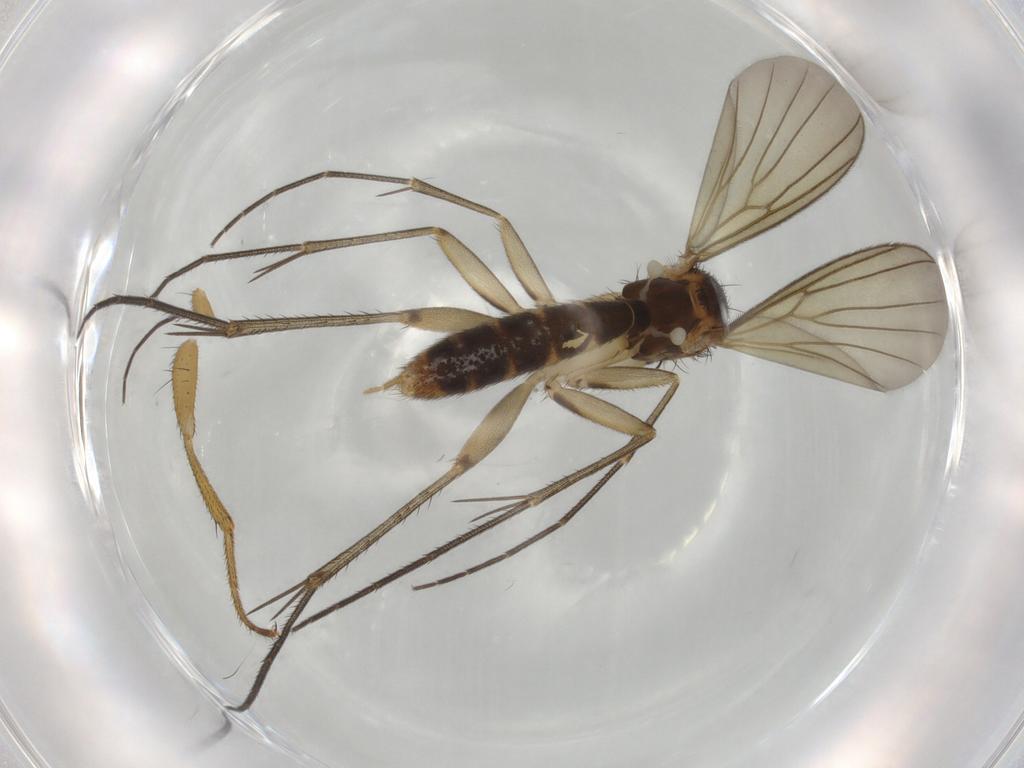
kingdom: Animalia
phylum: Arthropoda
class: Insecta
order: Diptera
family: Mycetophilidae
